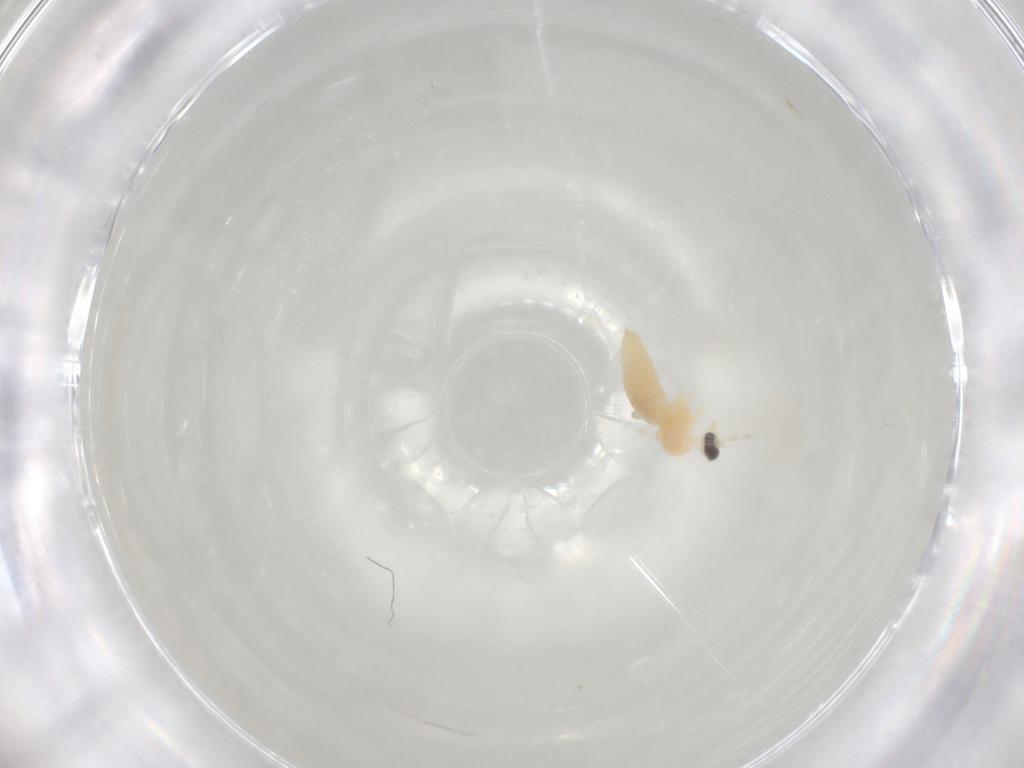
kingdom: Animalia
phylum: Arthropoda
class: Insecta
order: Diptera
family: Cecidomyiidae
